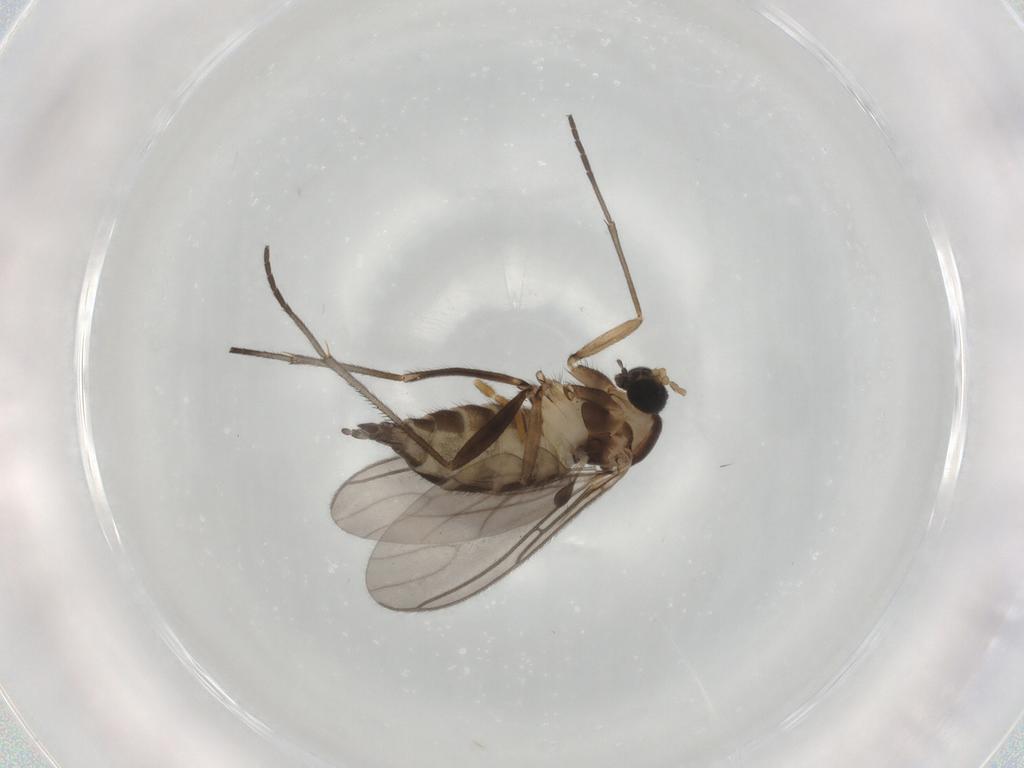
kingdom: Animalia
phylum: Arthropoda
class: Insecta
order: Diptera
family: Sciaridae
